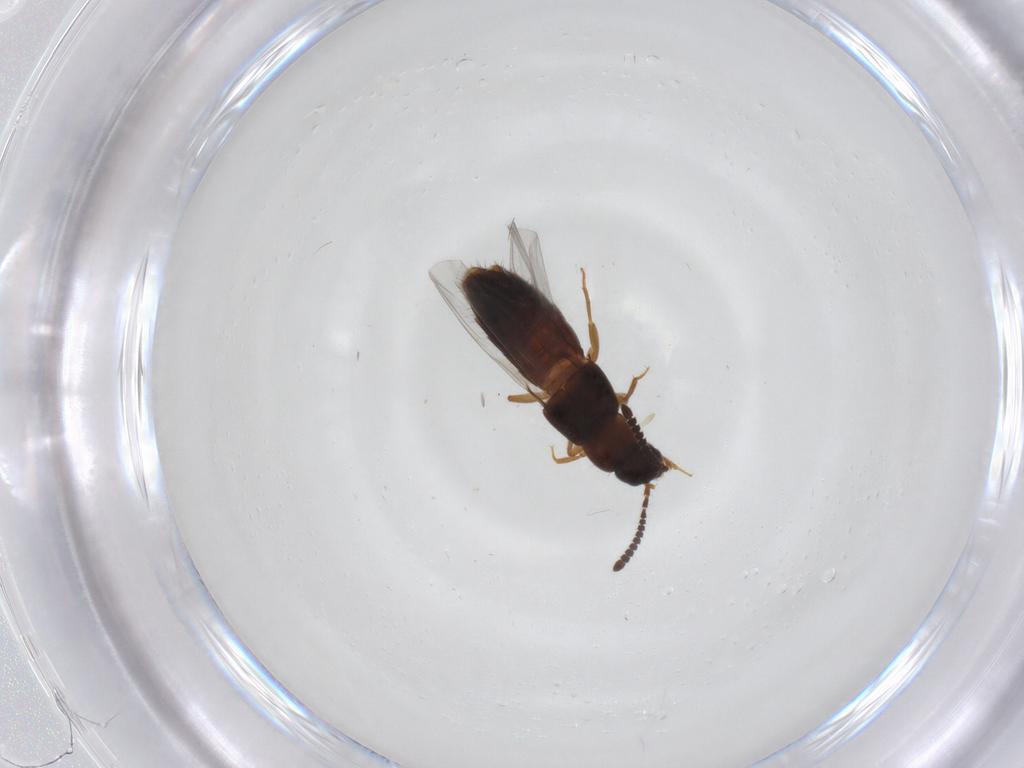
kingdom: Animalia
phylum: Arthropoda
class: Insecta
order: Coleoptera
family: Staphylinidae
